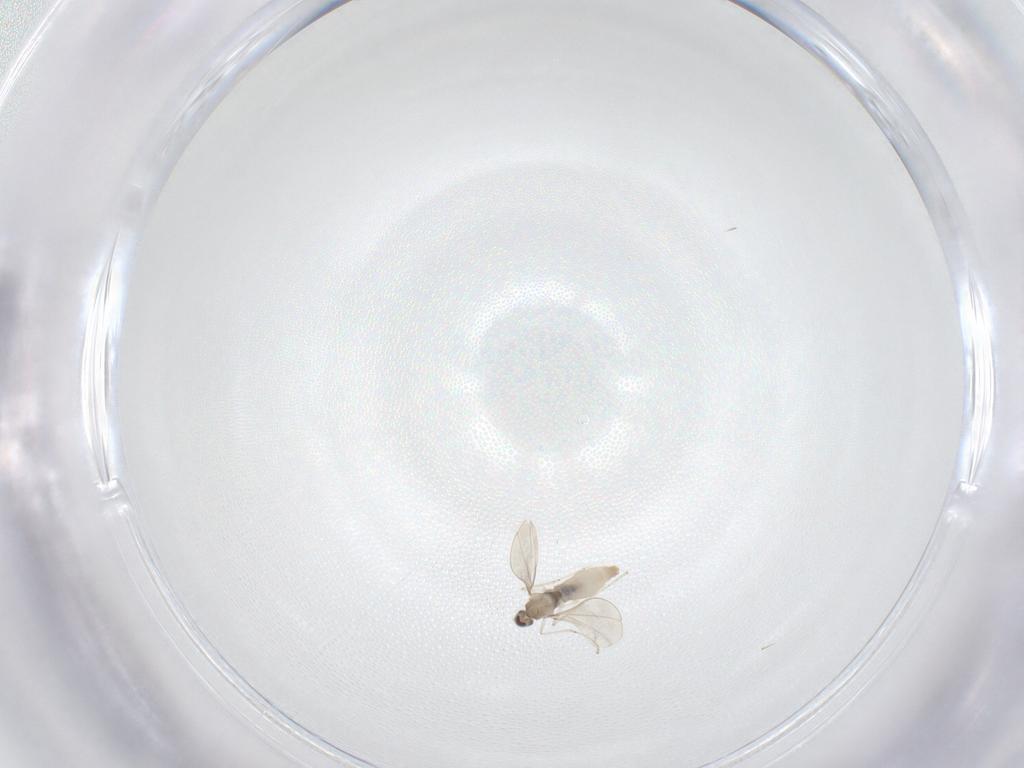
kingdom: Animalia
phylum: Arthropoda
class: Insecta
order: Diptera
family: Cecidomyiidae
